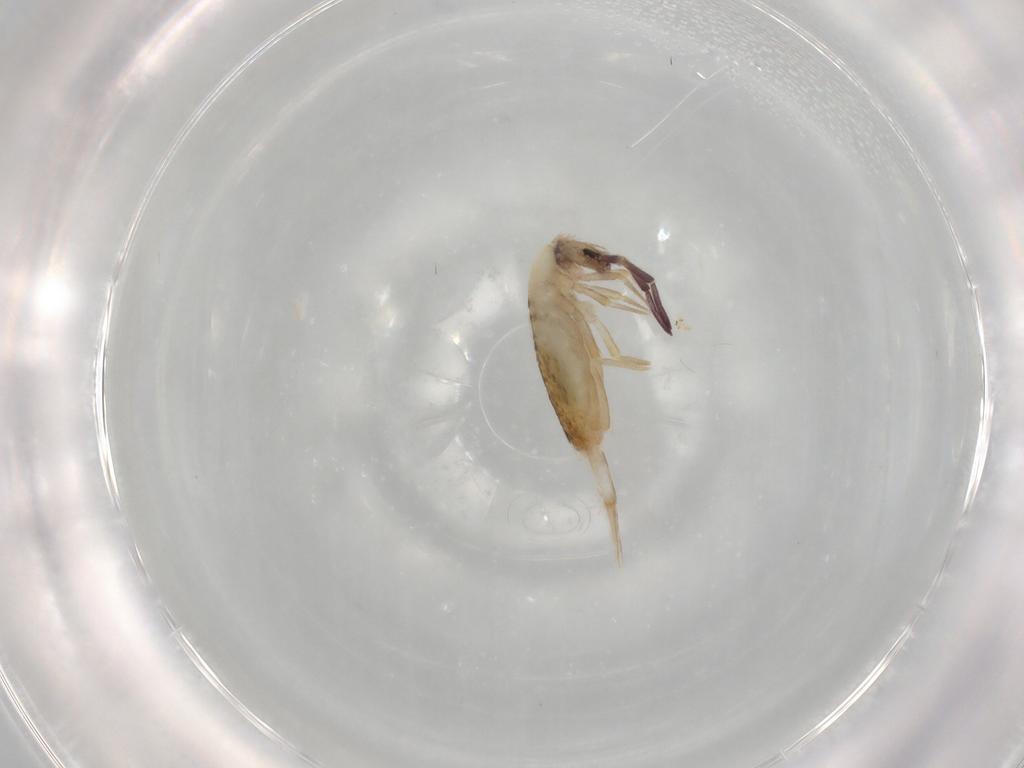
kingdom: Animalia
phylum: Arthropoda
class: Collembola
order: Entomobryomorpha
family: Entomobryidae
